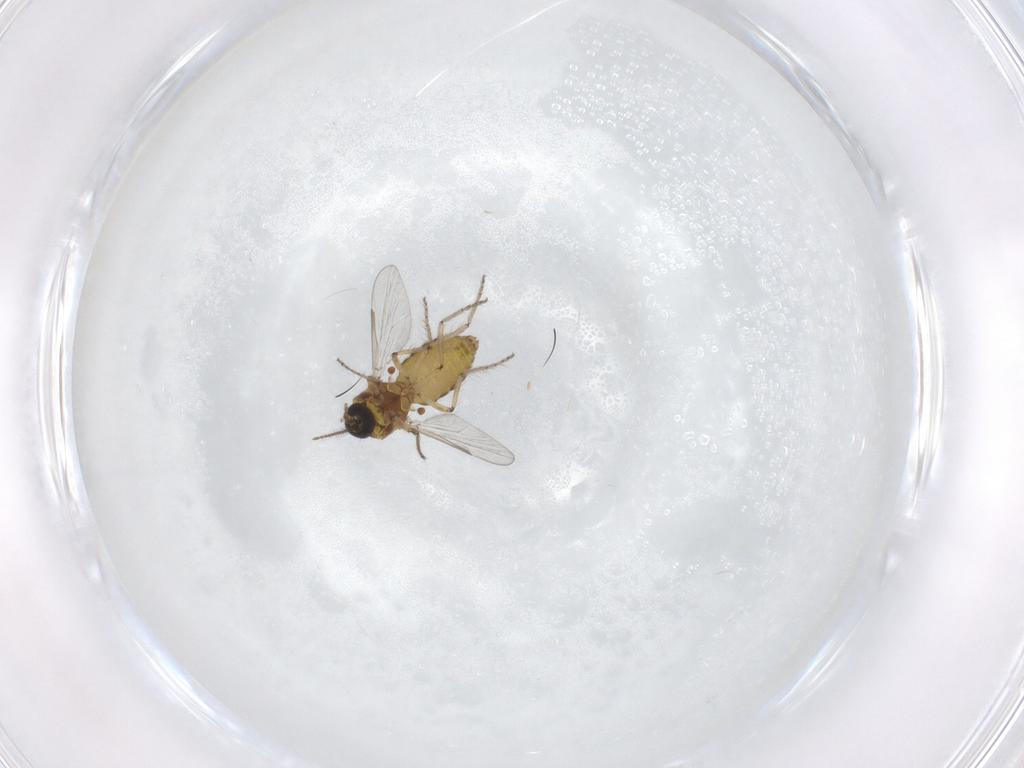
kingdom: Animalia
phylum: Arthropoda
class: Insecta
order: Diptera
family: Ceratopogonidae
